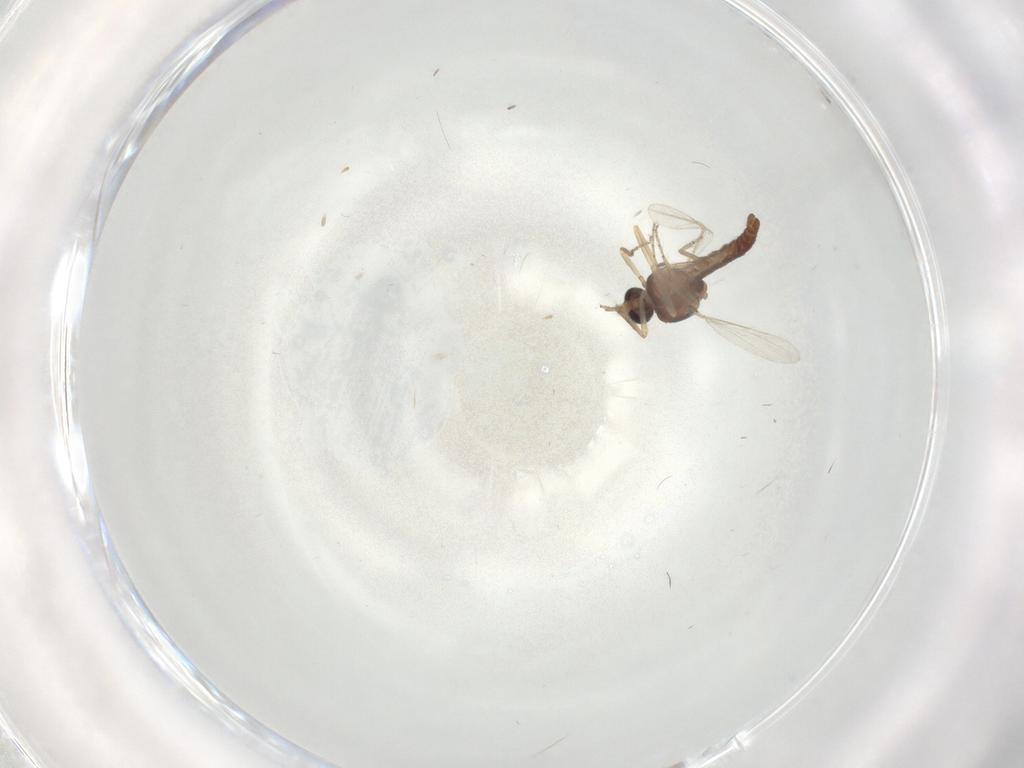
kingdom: Animalia
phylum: Arthropoda
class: Insecta
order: Diptera
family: Ceratopogonidae
